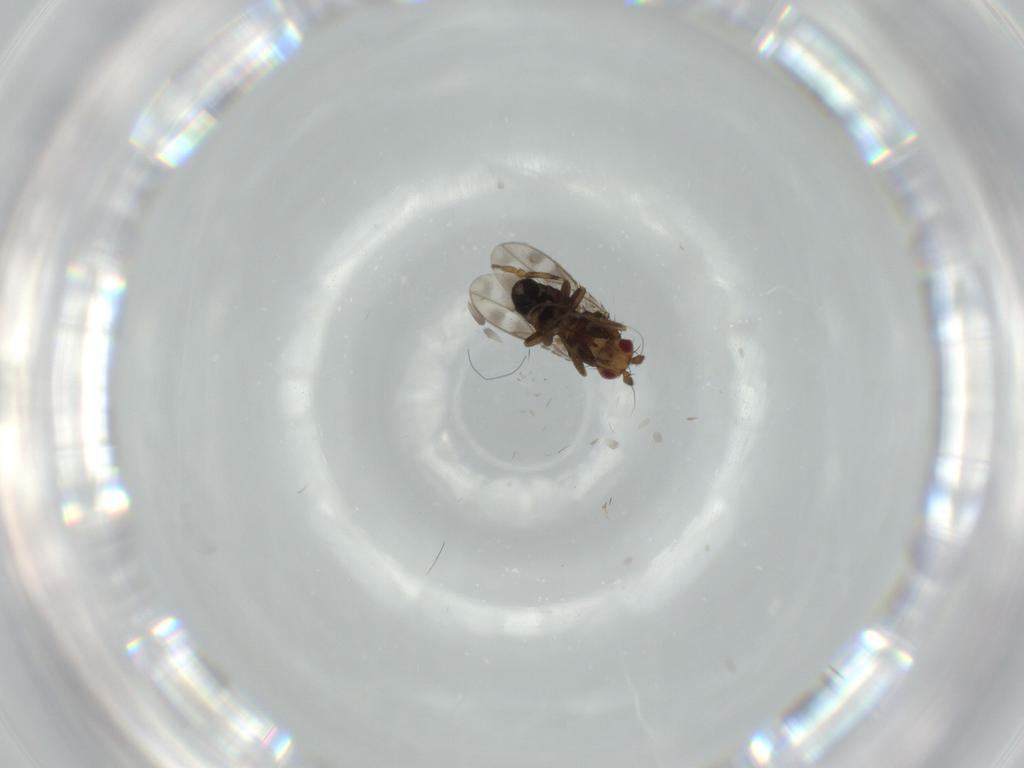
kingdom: Animalia
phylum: Arthropoda
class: Insecta
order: Diptera
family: Sphaeroceridae
